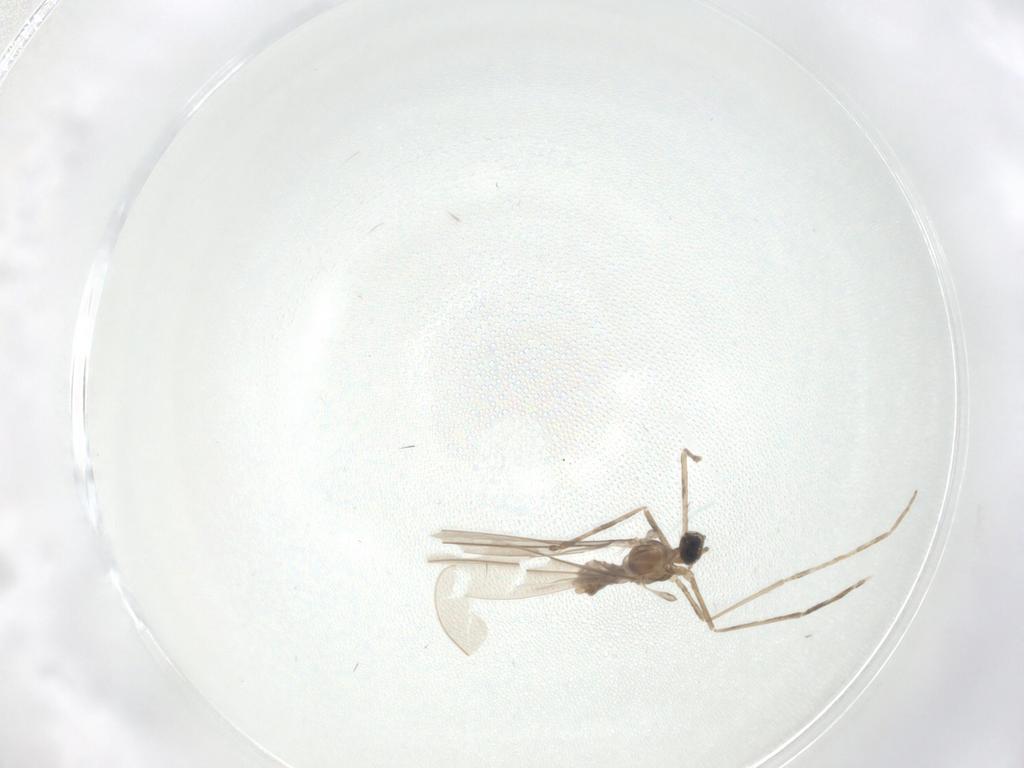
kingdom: Animalia
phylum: Arthropoda
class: Insecta
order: Diptera
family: Cecidomyiidae
